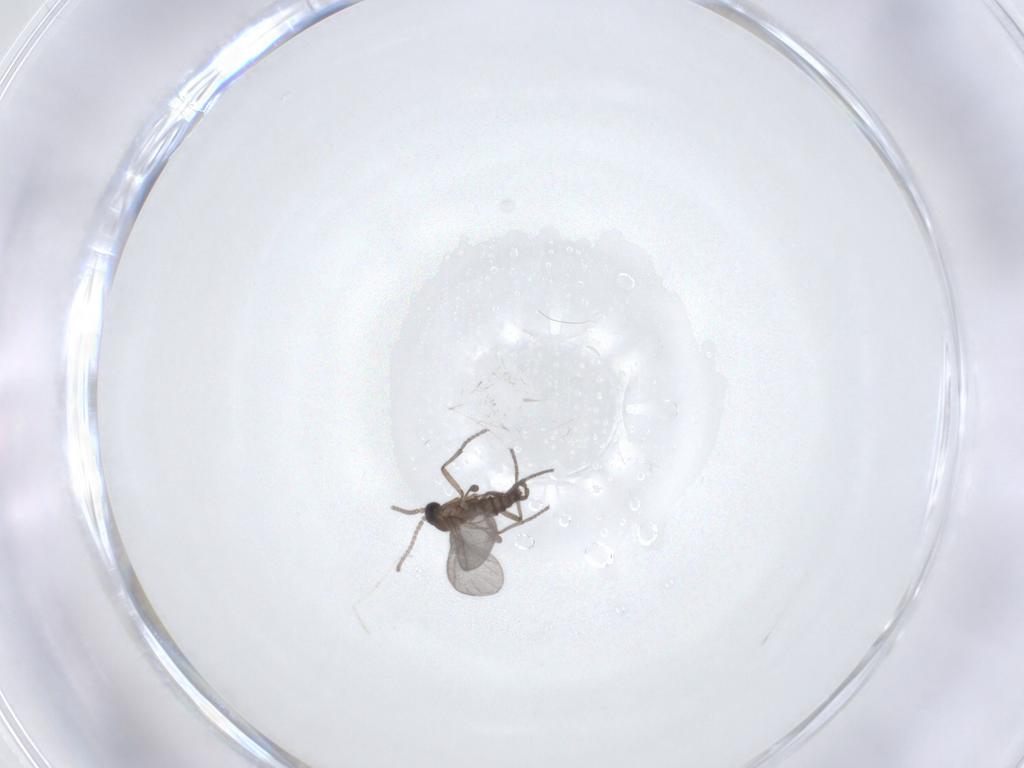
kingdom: Animalia
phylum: Arthropoda
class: Insecta
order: Diptera
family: Sciaridae
